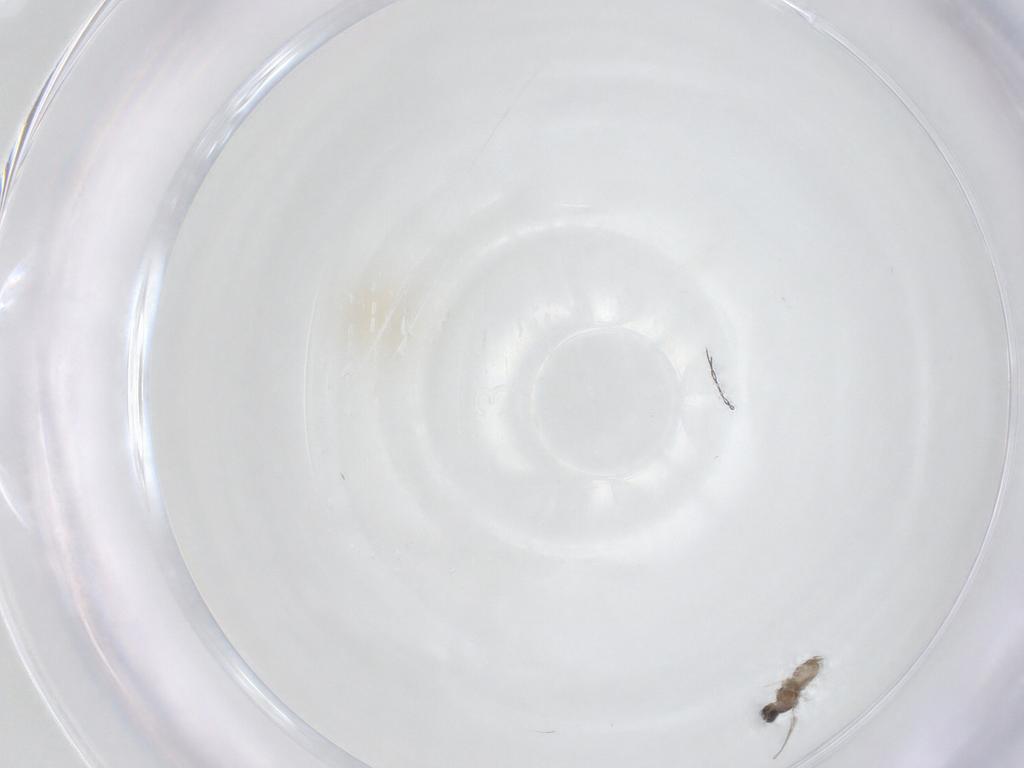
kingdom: Animalia
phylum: Arthropoda
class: Insecta
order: Diptera
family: Cecidomyiidae
